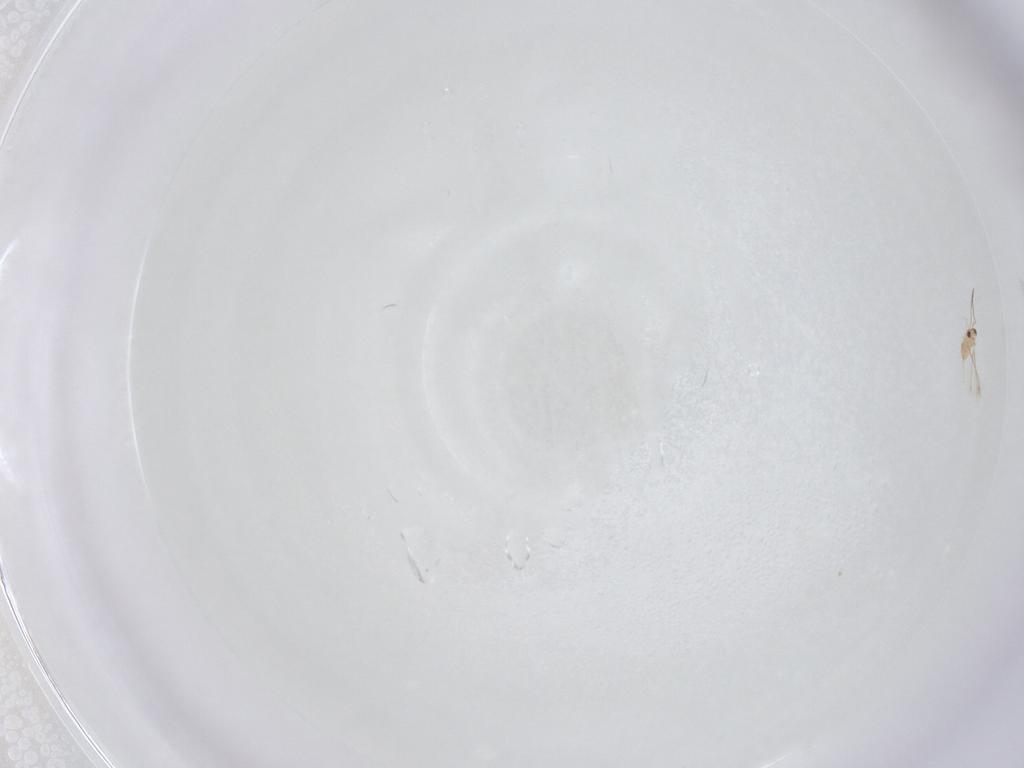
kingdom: Animalia
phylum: Arthropoda
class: Insecta
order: Hymenoptera
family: Mymaridae
